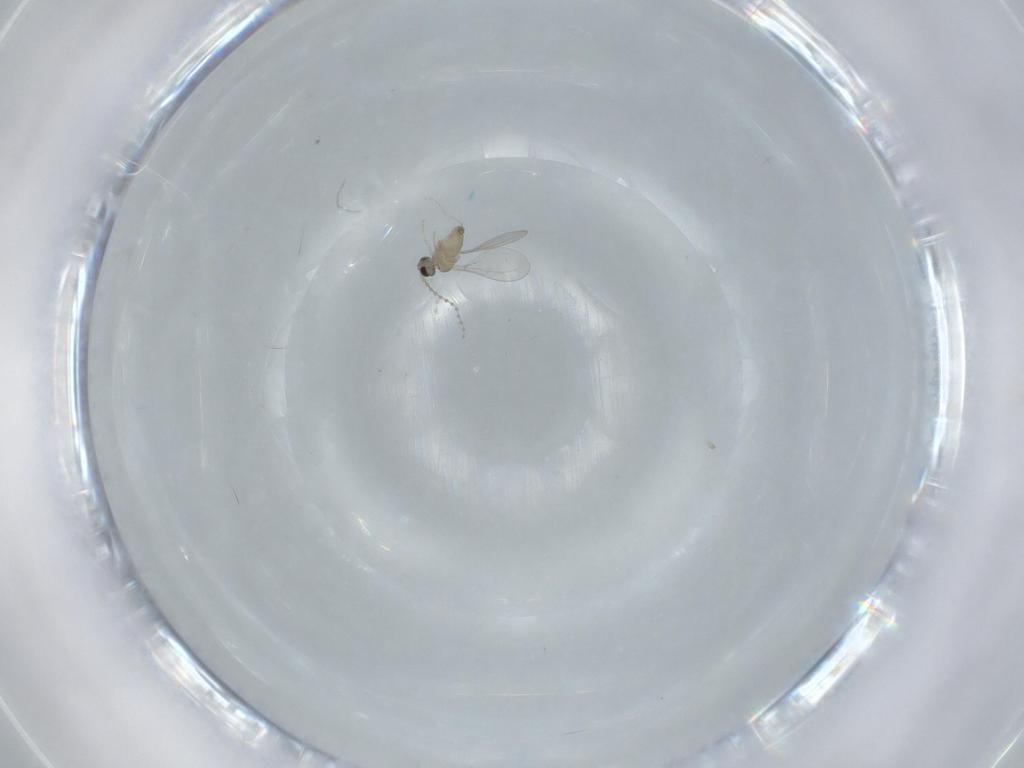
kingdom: Animalia
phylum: Arthropoda
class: Insecta
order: Diptera
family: Cecidomyiidae
